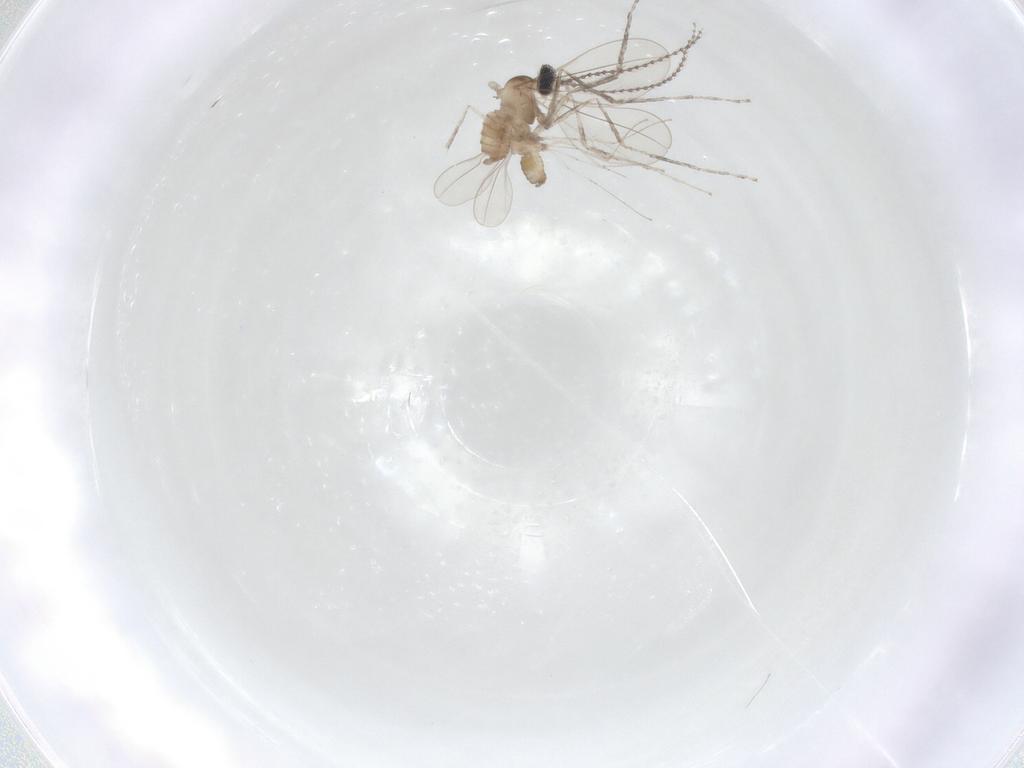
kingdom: Animalia
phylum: Arthropoda
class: Insecta
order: Diptera
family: Cecidomyiidae
